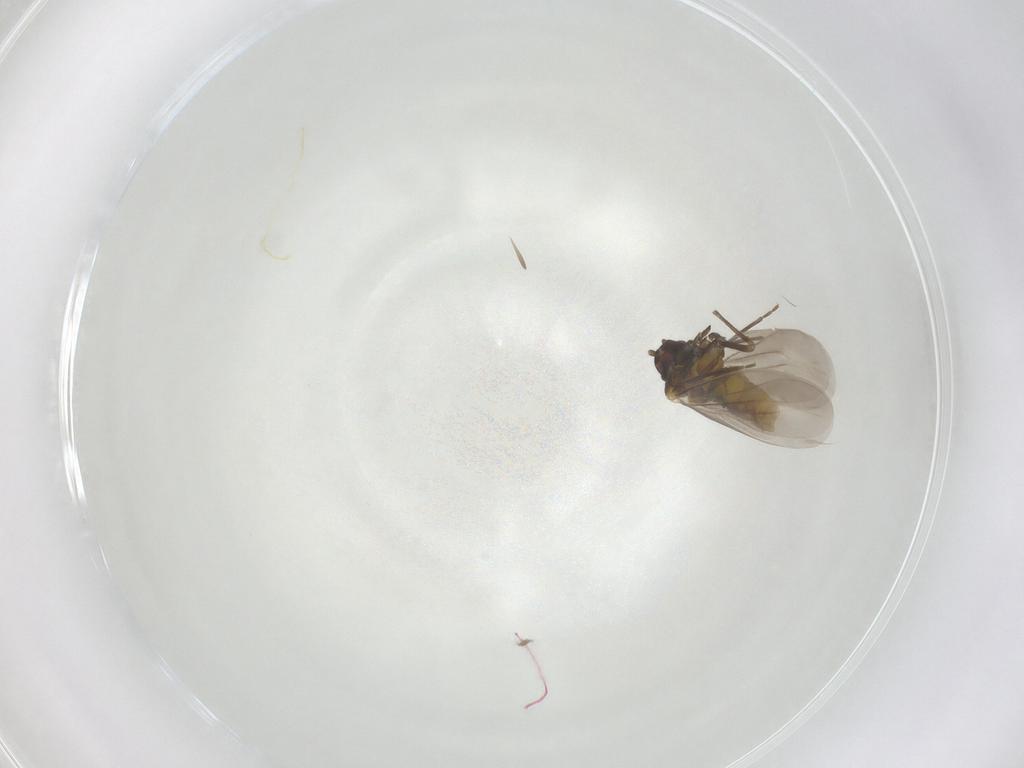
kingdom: Animalia
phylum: Arthropoda
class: Insecta
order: Hemiptera
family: Aleyrodidae
